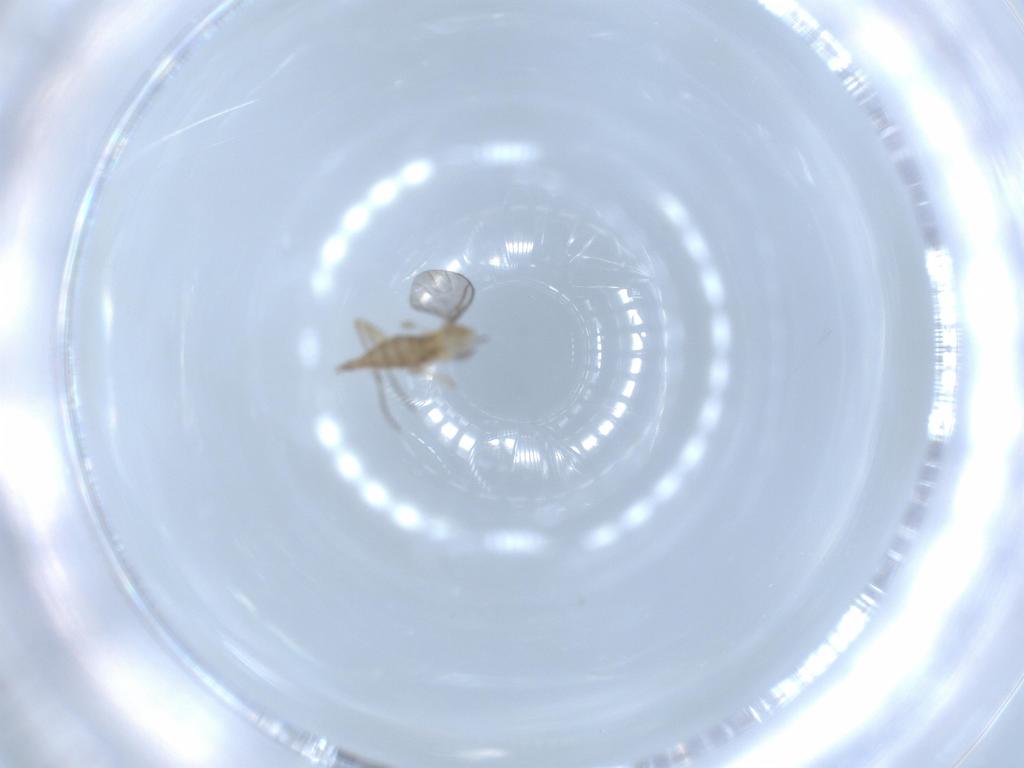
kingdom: Animalia
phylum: Arthropoda
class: Insecta
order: Diptera
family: Sciaridae
